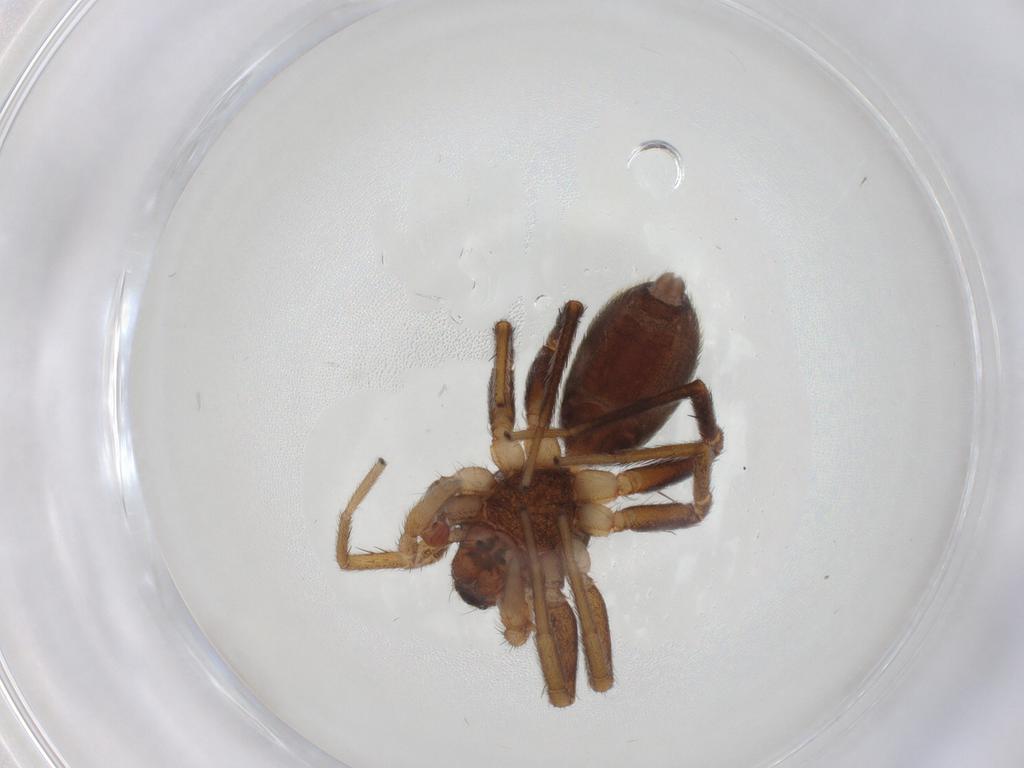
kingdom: Animalia
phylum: Arthropoda
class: Arachnida
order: Araneae
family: Corinnidae
